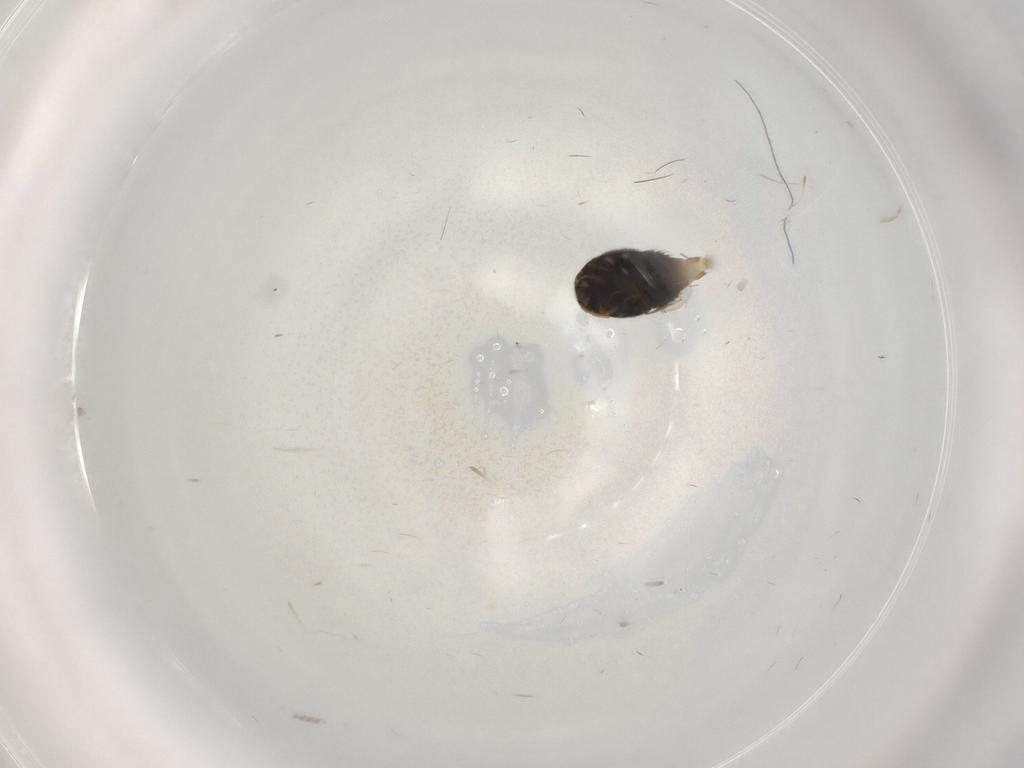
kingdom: Animalia
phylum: Arthropoda
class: Insecta
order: Coleoptera
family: Staphylinidae
